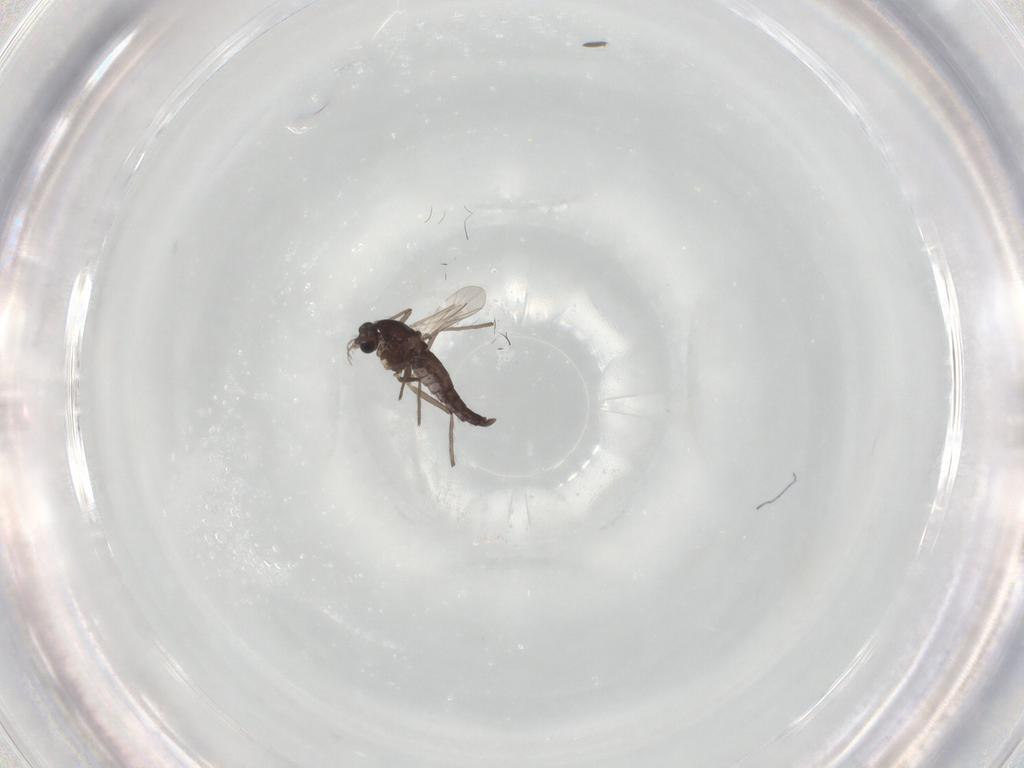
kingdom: Animalia
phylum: Arthropoda
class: Insecta
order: Diptera
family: Chironomidae
